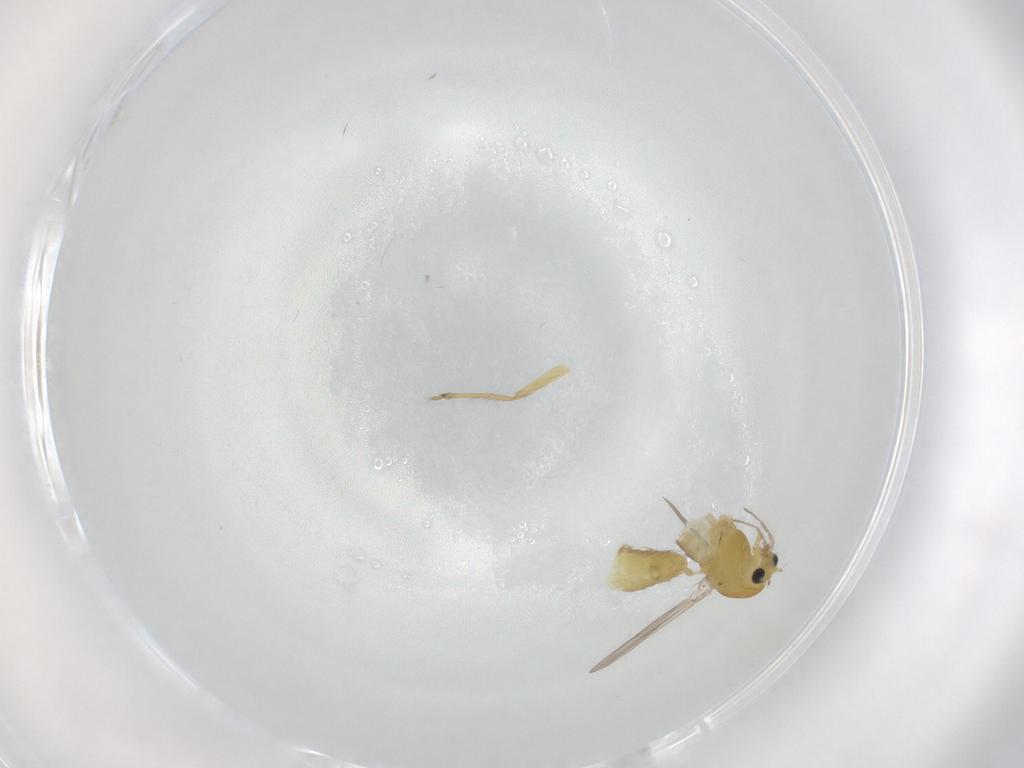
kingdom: Animalia
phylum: Arthropoda
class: Insecta
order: Diptera
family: Chironomidae
